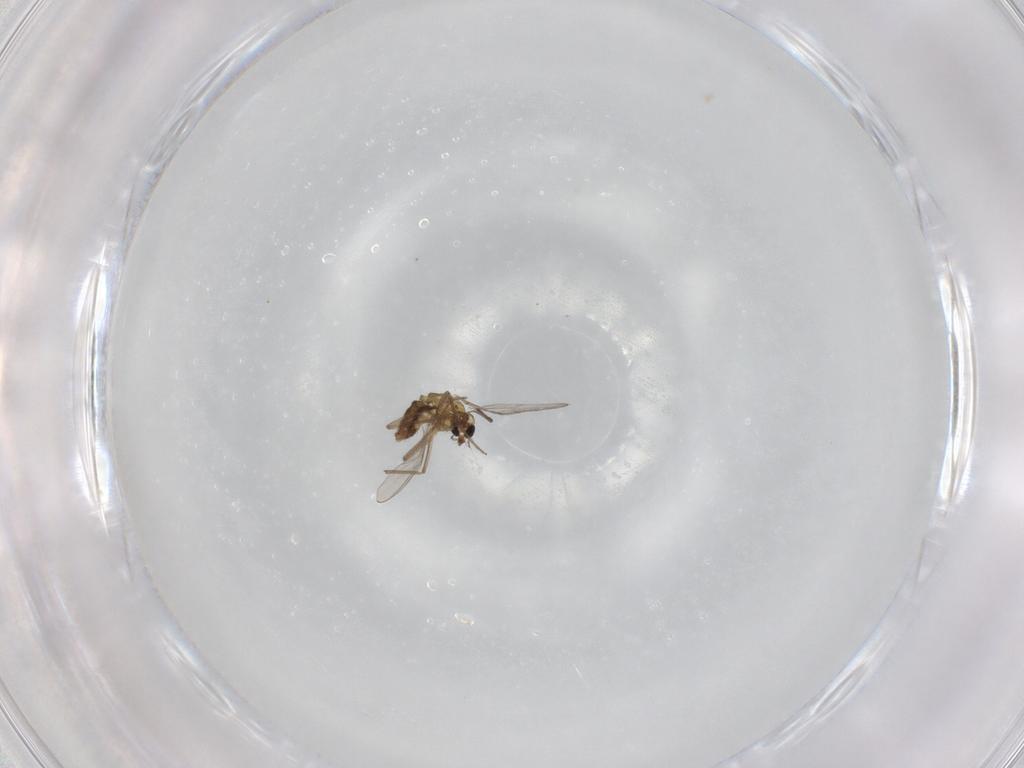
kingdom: Animalia
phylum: Arthropoda
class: Insecta
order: Diptera
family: Chironomidae
